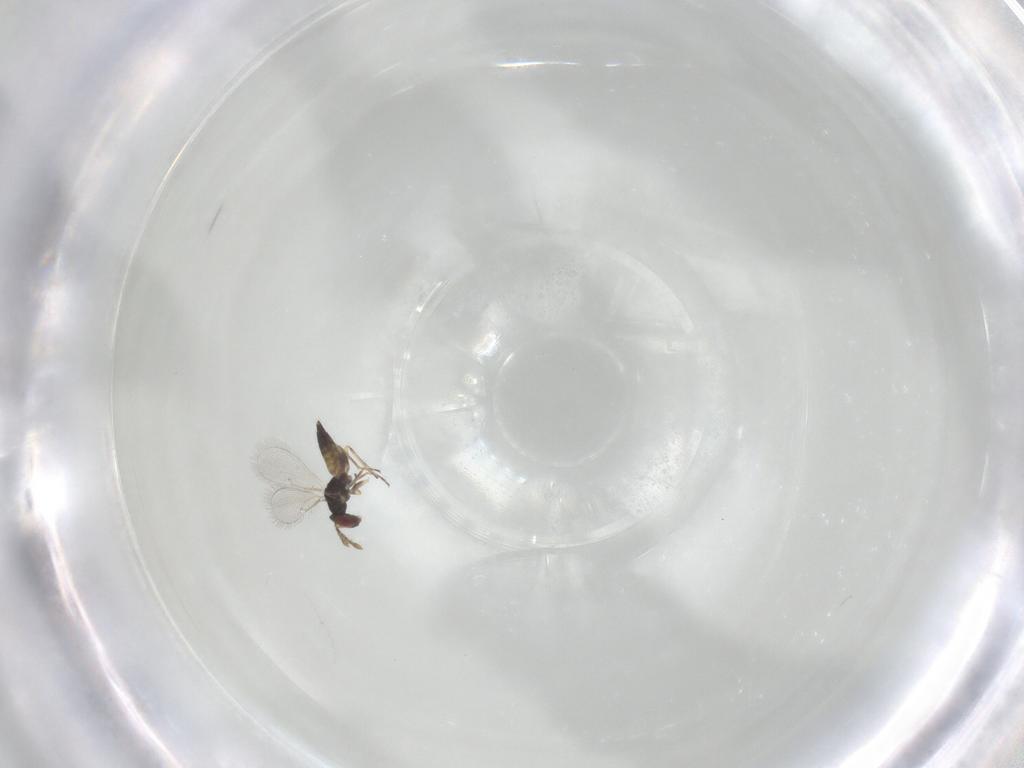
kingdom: Animalia
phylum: Arthropoda
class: Insecta
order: Hymenoptera
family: Eulophidae
